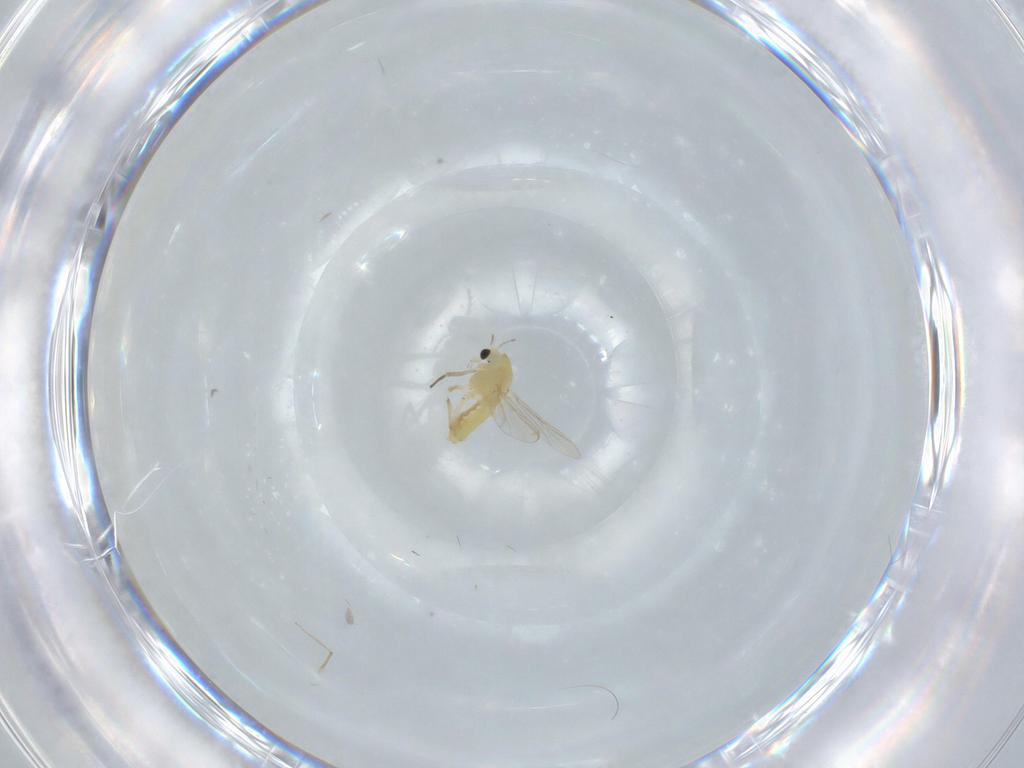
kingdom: Animalia
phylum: Arthropoda
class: Insecta
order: Diptera
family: Chironomidae
